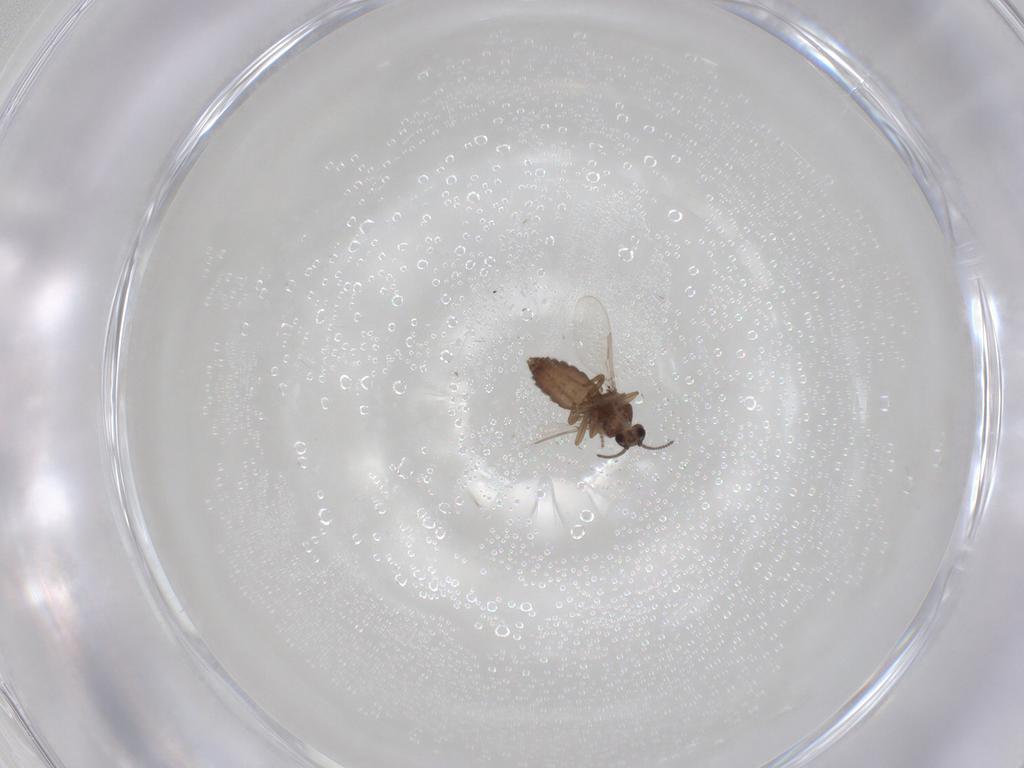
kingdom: Animalia
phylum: Arthropoda
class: Insecta
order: Diptera
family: Ceratopogonidae
